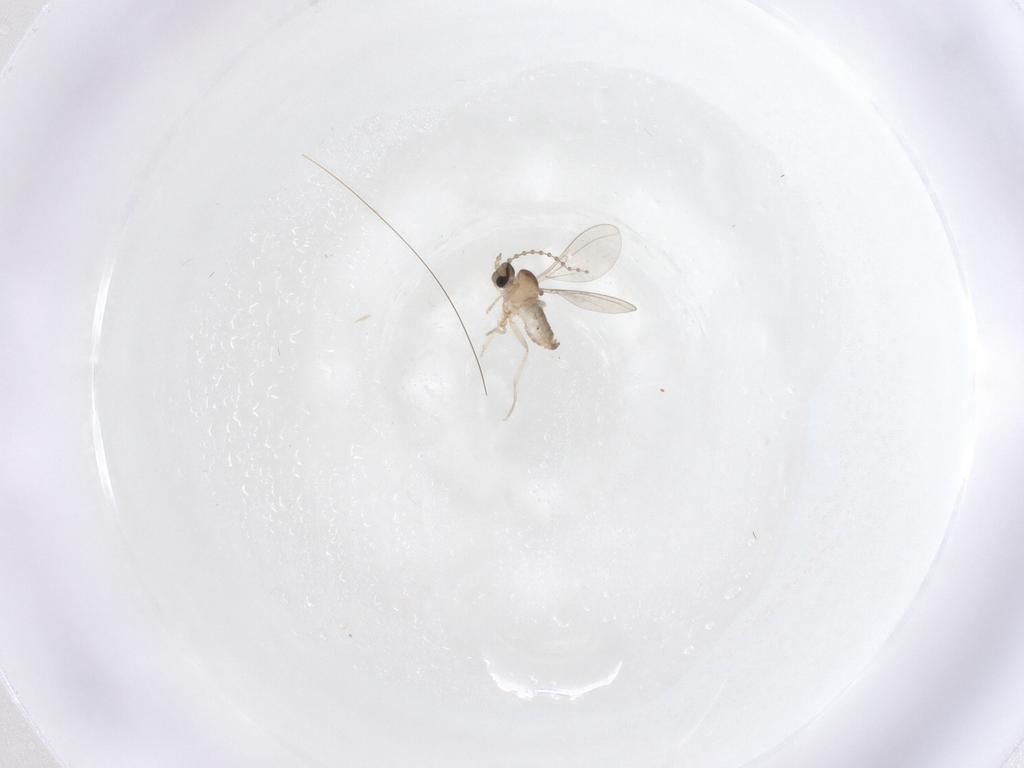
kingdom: Animalia
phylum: Arthropoda
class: Insecta
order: Diptera
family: Cecidomyiidae
